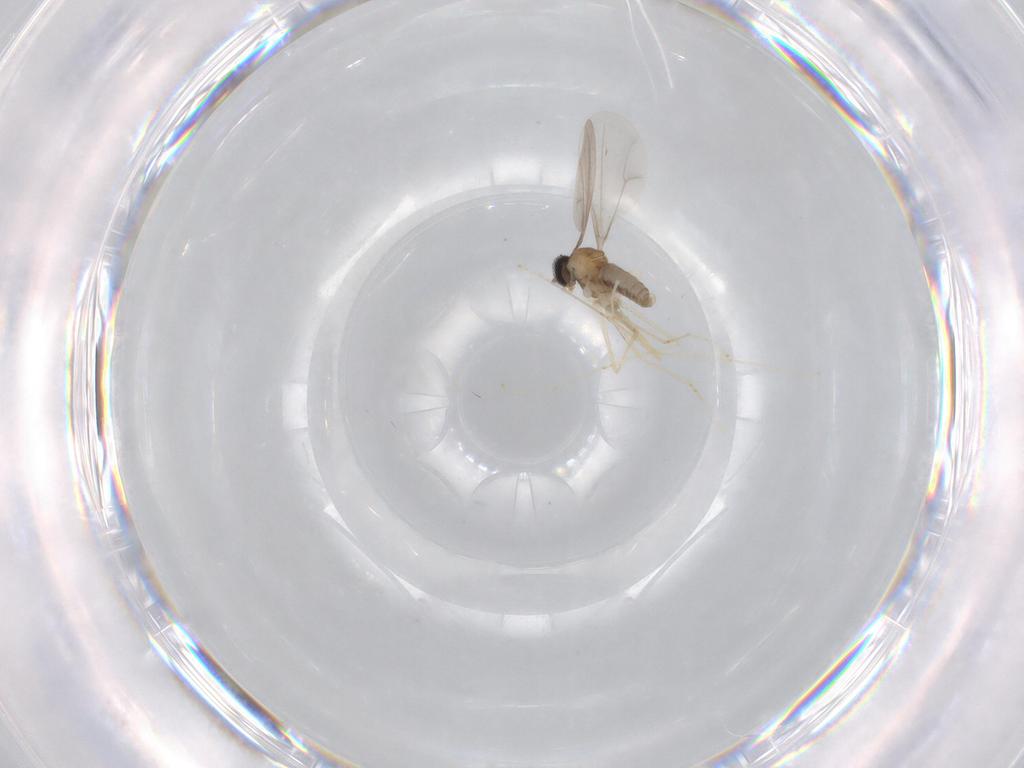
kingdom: Animalia
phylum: Arthropoda
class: Insecta
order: Diptera
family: Cecidomyiidae
